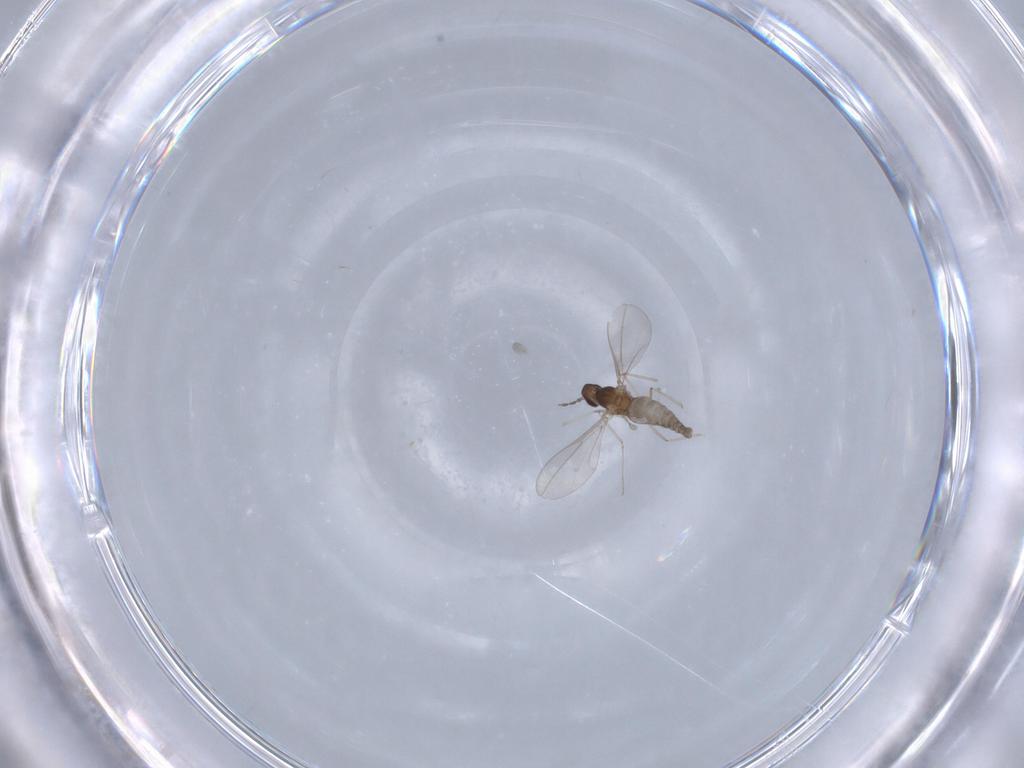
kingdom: Animalia
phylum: Arthropoda
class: Insecta
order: Diptera
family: Cecidomyiidae
